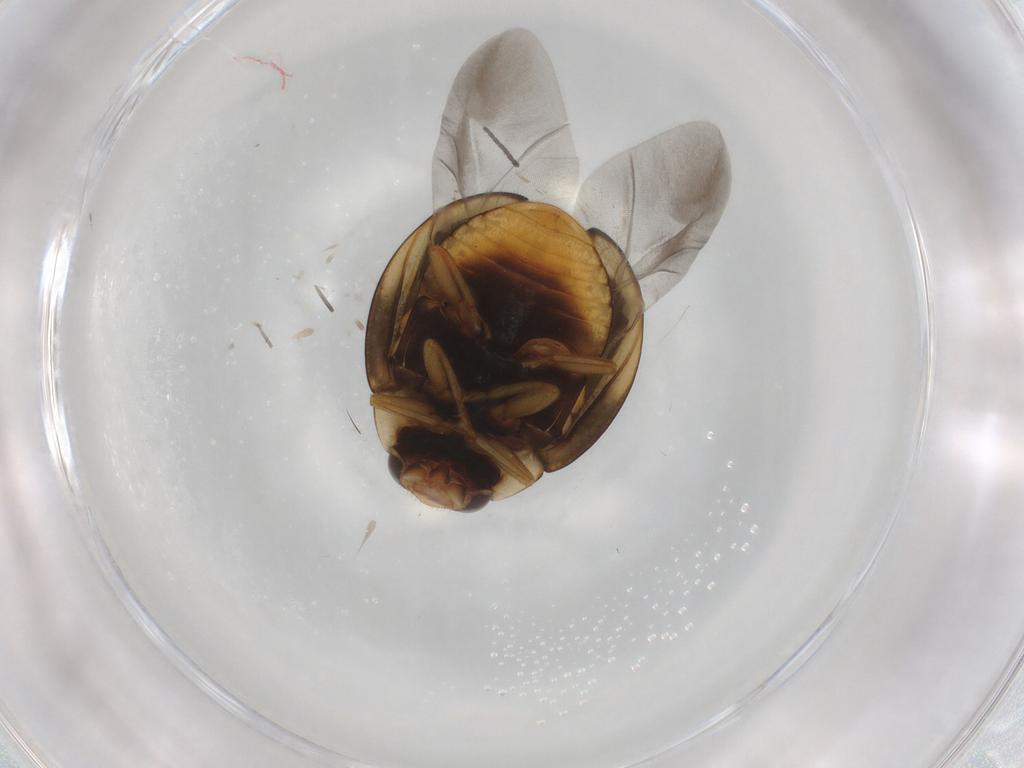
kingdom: Animalia
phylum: Arthropoda
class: Insecta
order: Coleoptera
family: Coccinellidae
